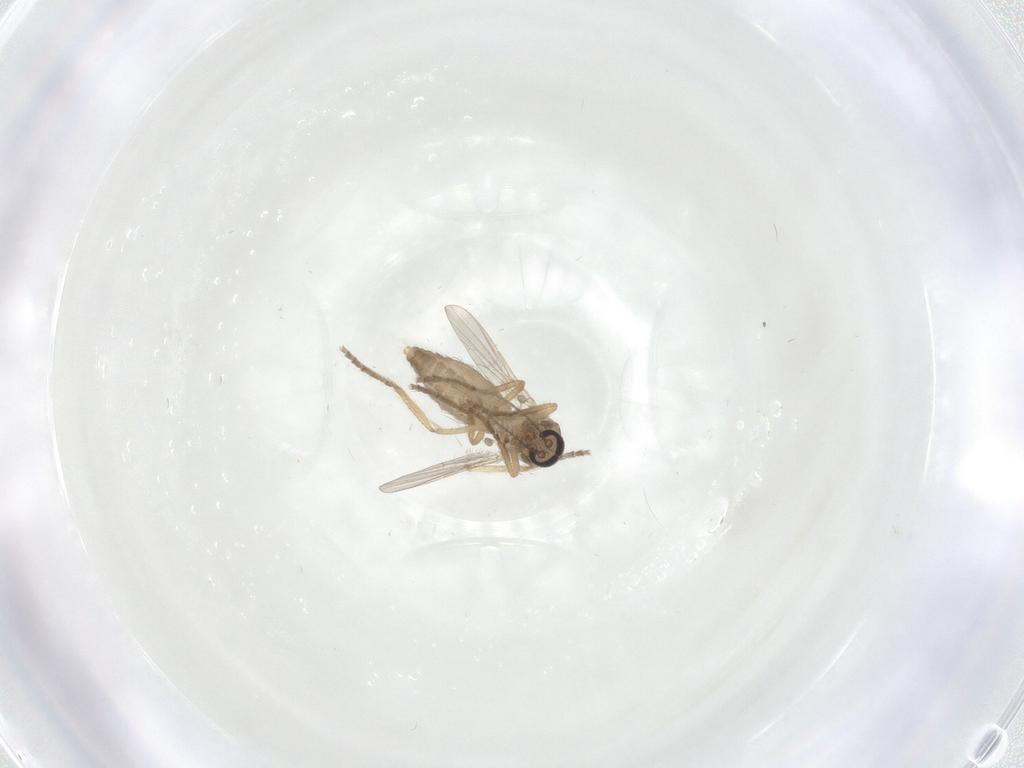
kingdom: Animalia
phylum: Arthropoda
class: Insecta
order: Diptera
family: Ceratopogonidae
